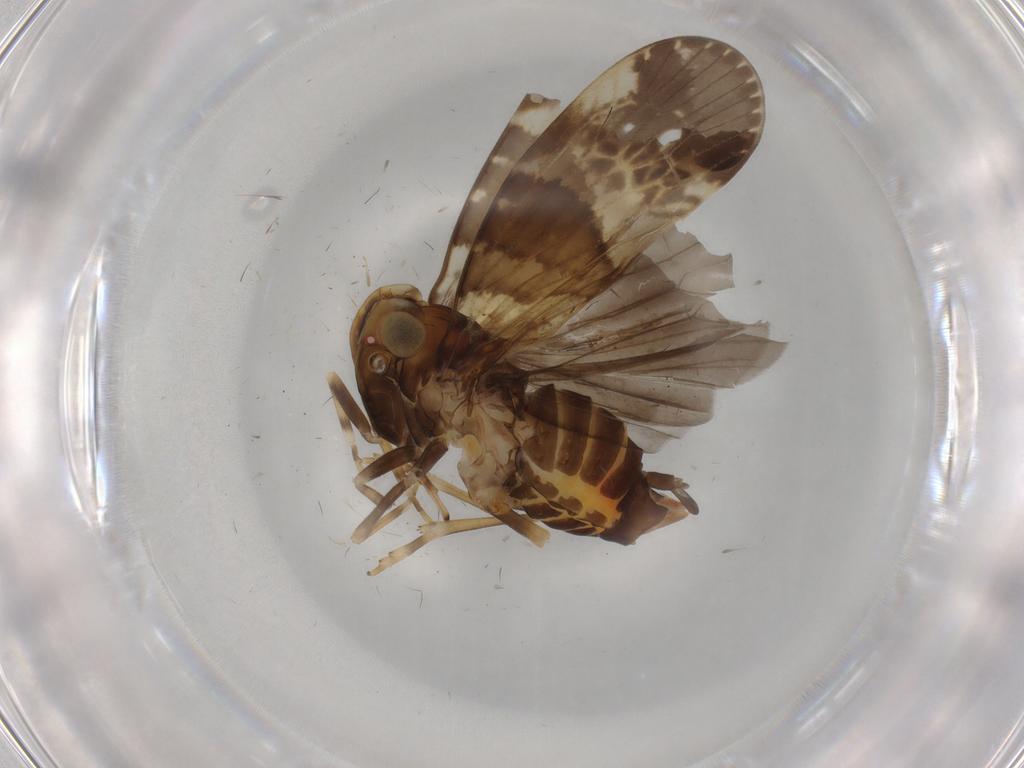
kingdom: Animalia
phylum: Arthropoda
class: Insecta
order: Hemiptera
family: Cixiidae
